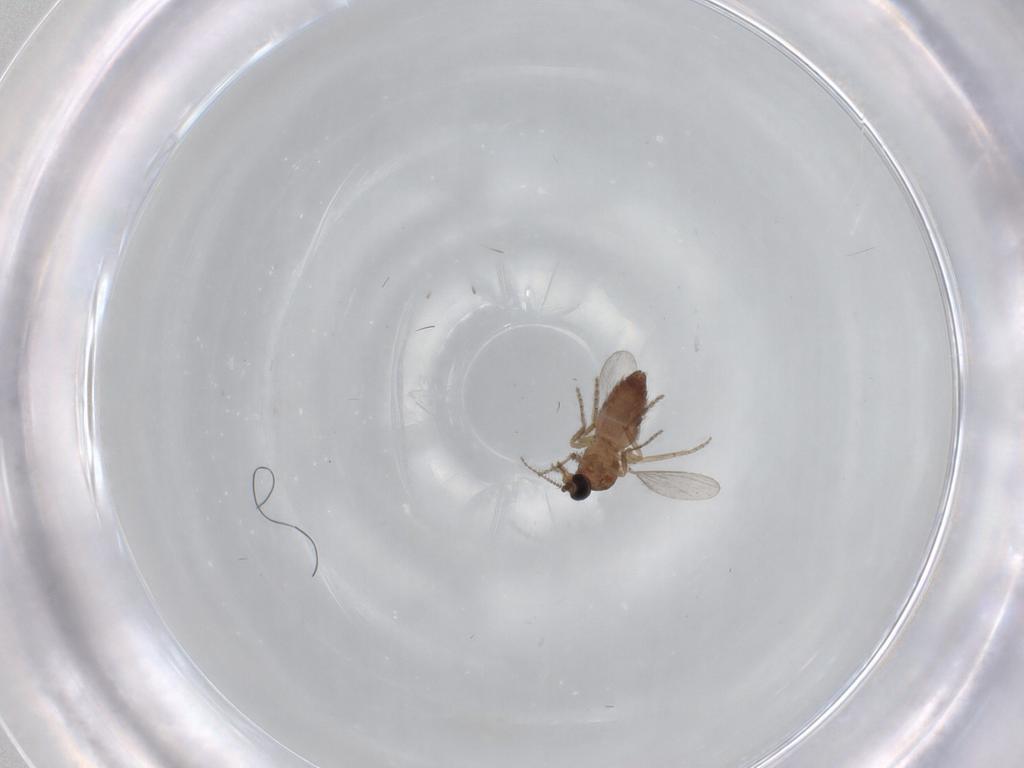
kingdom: Animalia
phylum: Arthropoda
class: Insecta
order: Diptera
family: Ceratopogonidae
